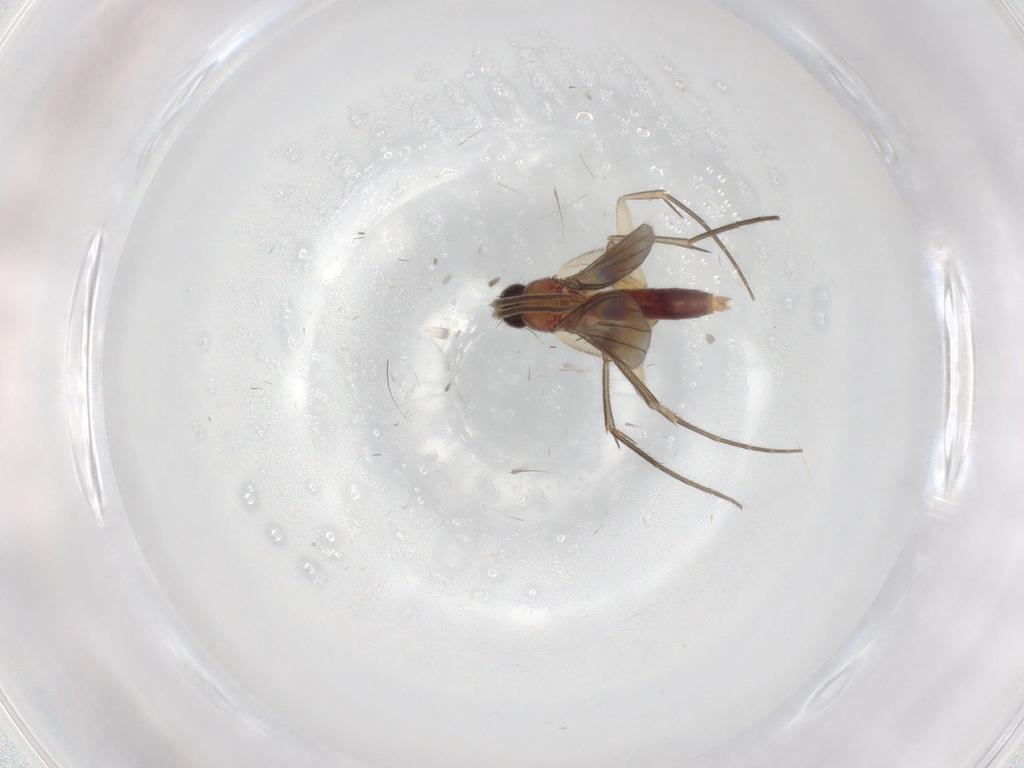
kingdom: Animalia
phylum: Arthropoda
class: Insecta
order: Diptera
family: Mycetophilidae
